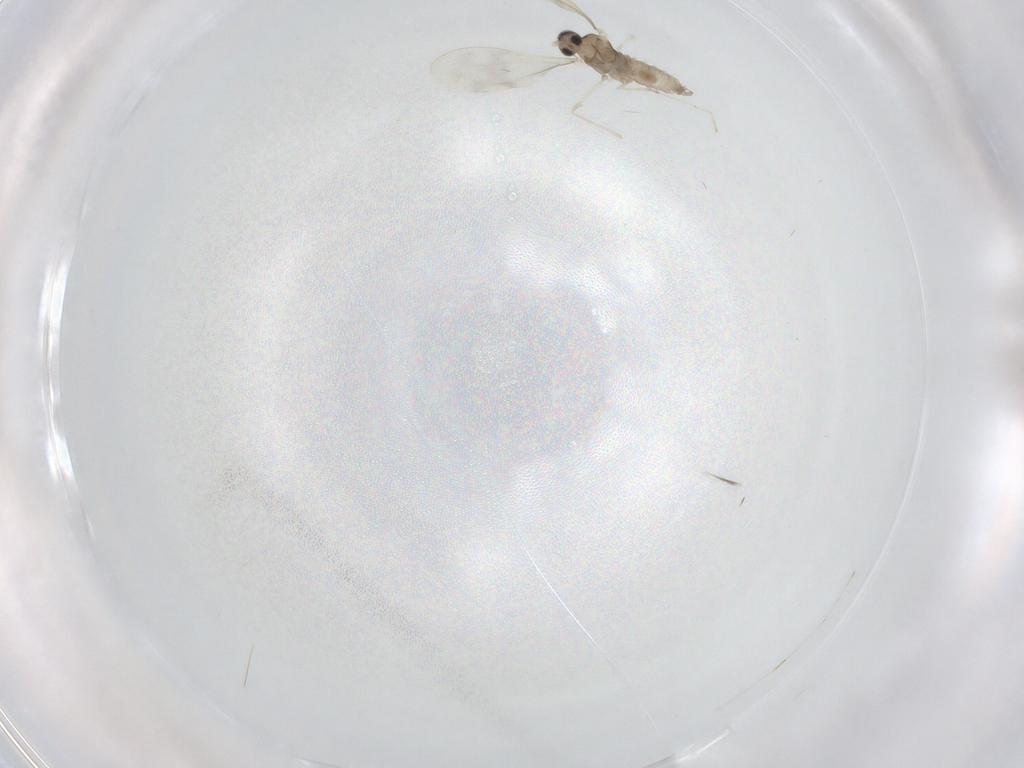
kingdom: Animalia
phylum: Arthropoda
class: Insecta
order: Diptera
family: Cecidomyiidae
